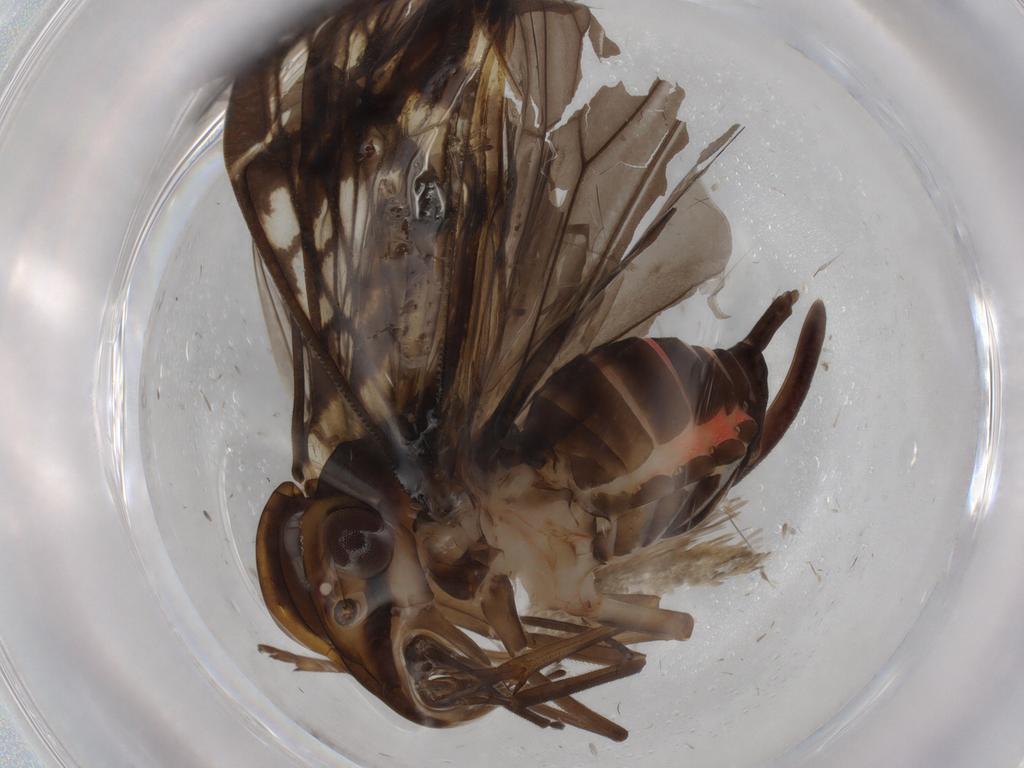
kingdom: Animalia
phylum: Arthropoda
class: Insecta
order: Hemiptera
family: Cixiidae
